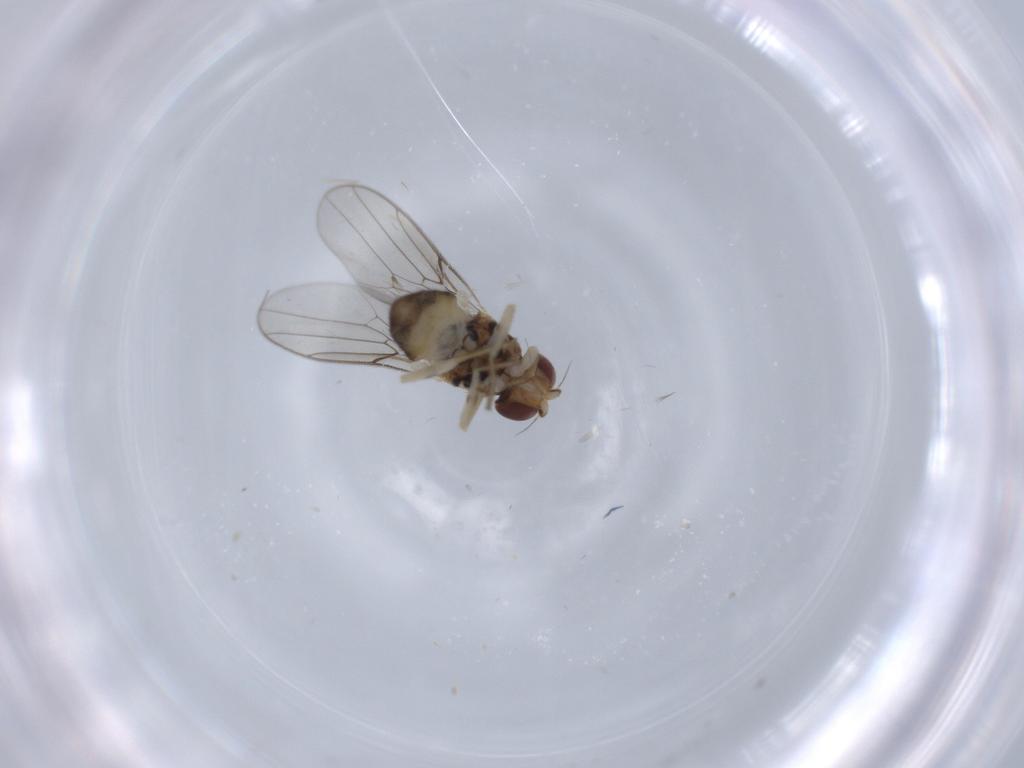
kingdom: Animalia
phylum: Arthropoda
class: Insecta
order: Diptera
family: Chloropidae
